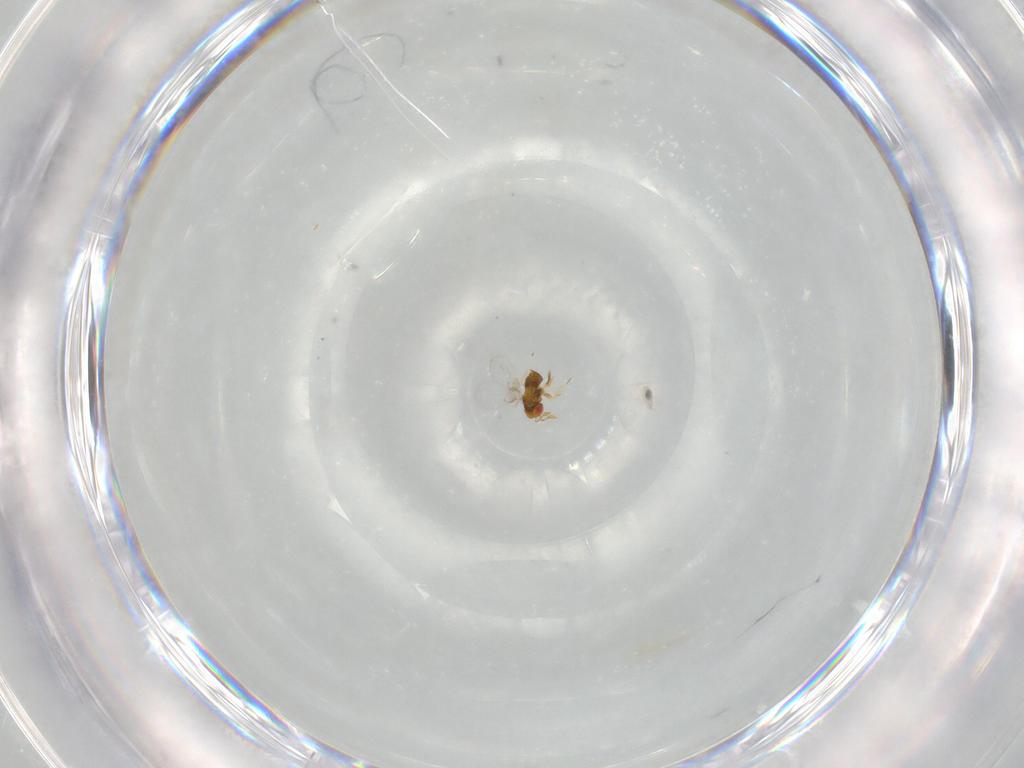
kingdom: Animalia
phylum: Arthropoda
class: Insecta
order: Hymenoptera
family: Trichogrammatidae
